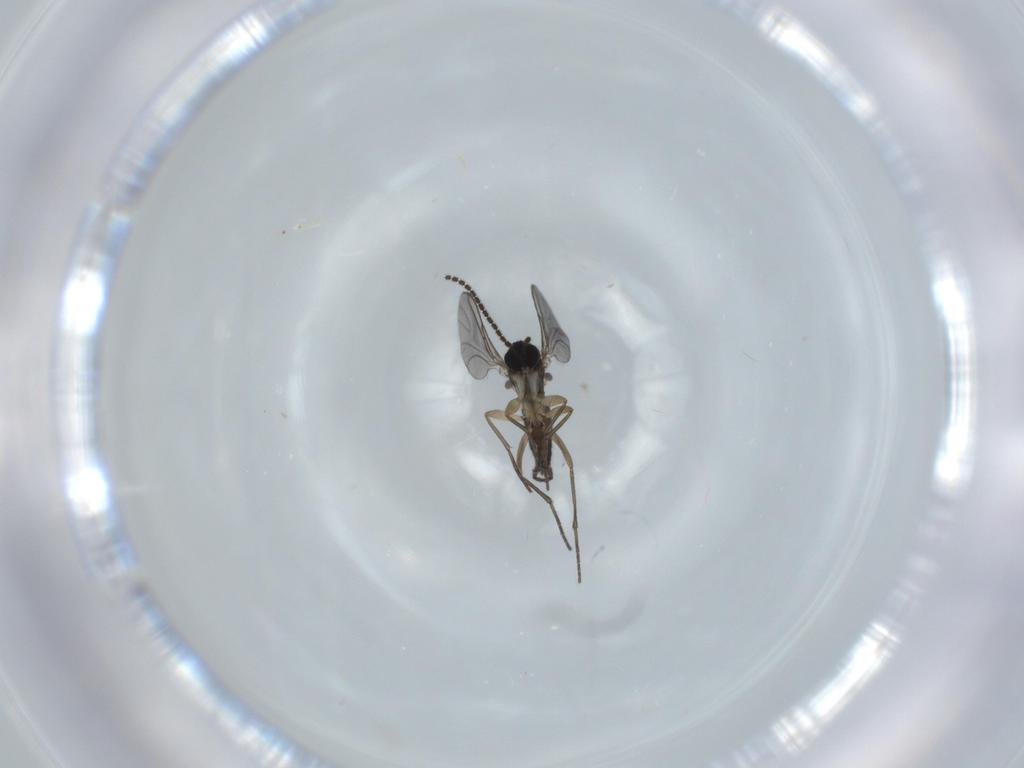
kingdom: Animalia
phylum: Arthropoda
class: Insecta
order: Diptera
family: Sciaridae
